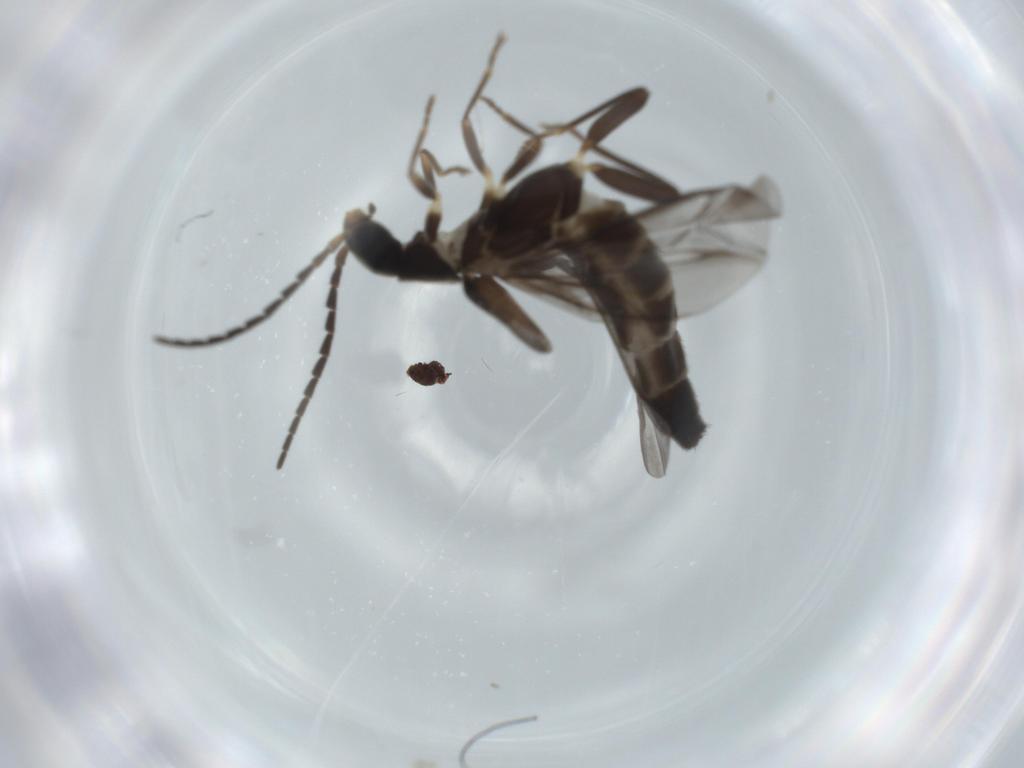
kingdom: Animalia
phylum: Arthropoda
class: Insecta
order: Coleoptera
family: Cantharidae
